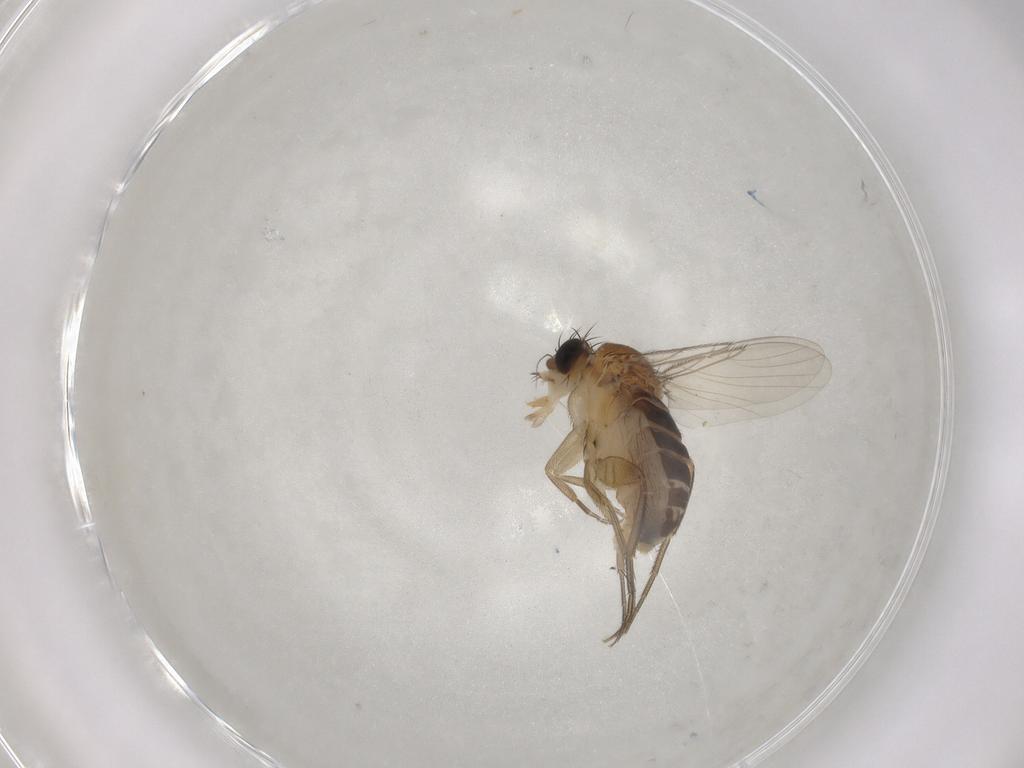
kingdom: Animalia
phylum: Arthropoda
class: Insecta
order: Diptera
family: Phoridae
